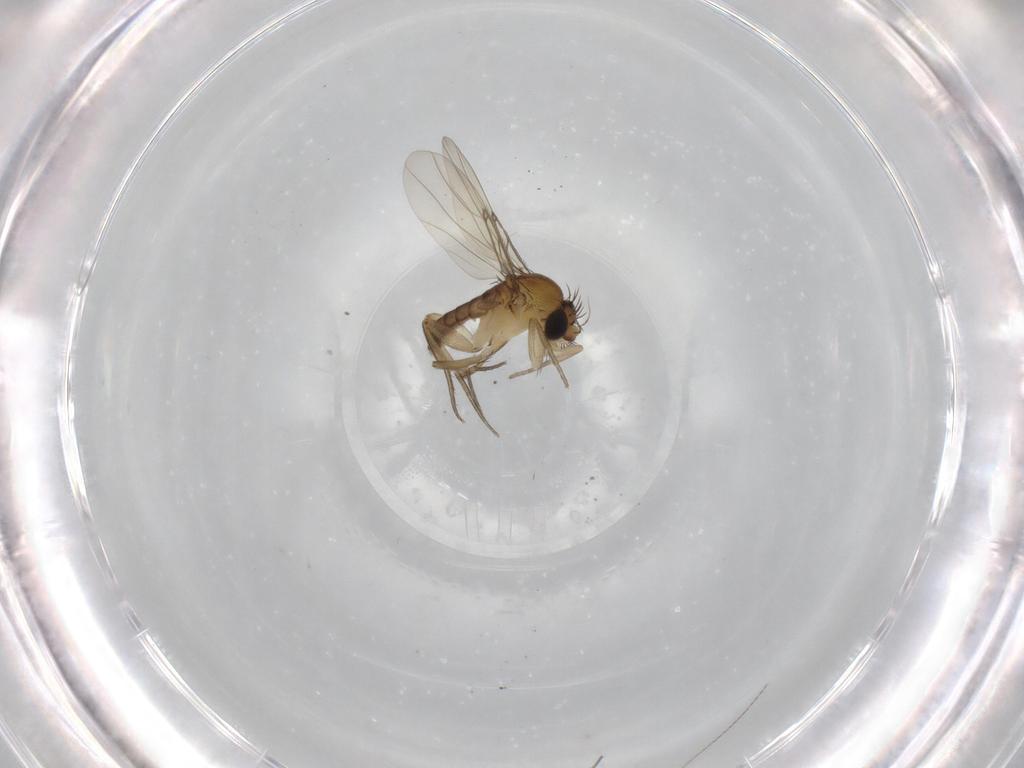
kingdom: Animalia
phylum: Arthropoda
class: Insecta
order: Diptera
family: Phoridae
